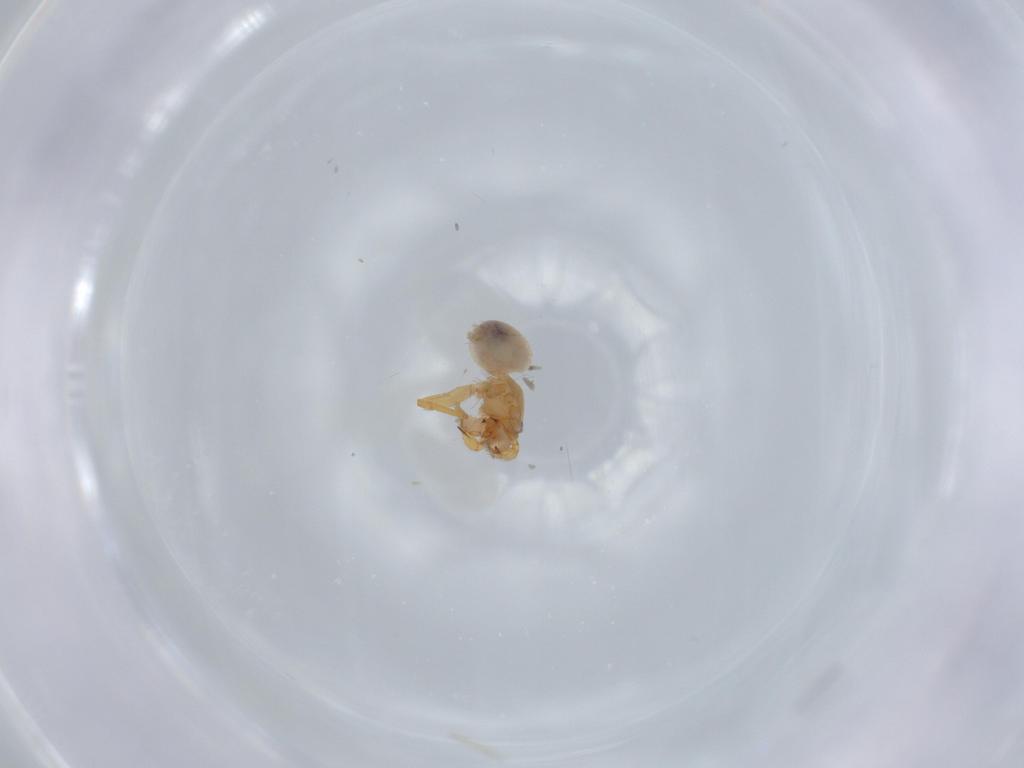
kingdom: Animalia
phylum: Arthropoda
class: Arachnida
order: Araneae
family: Oonopidae
